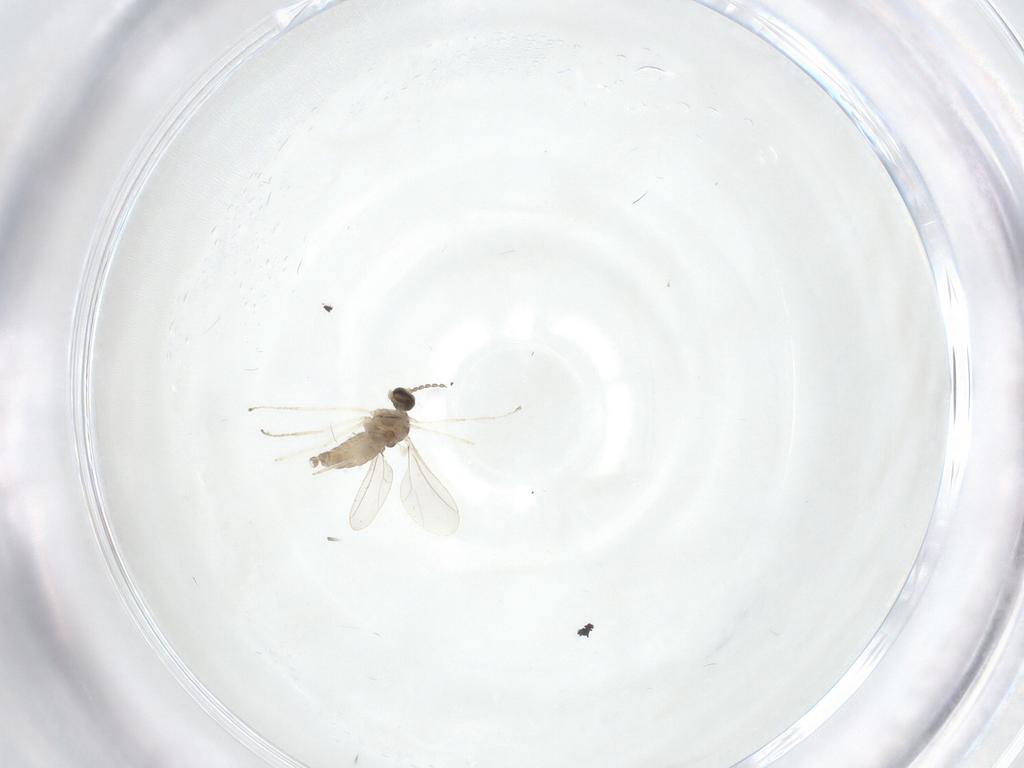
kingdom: Animalia
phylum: Arthropoda
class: Insecta
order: Diptera
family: Cecidomyiidae
